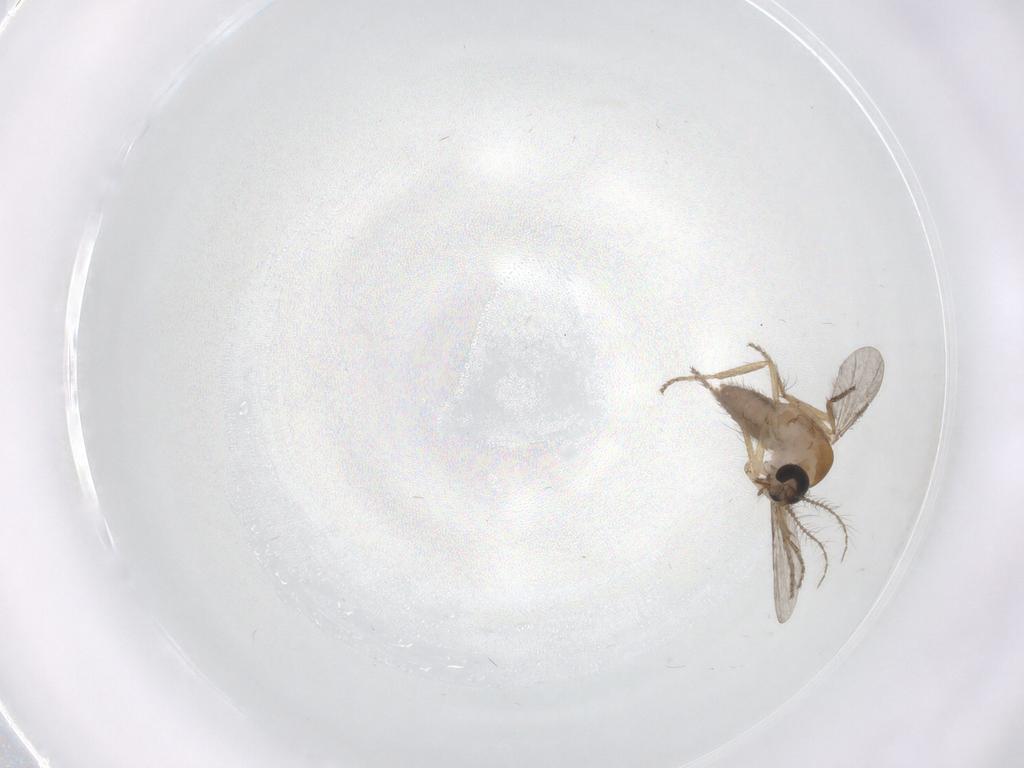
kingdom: Animalia
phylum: Arthropoda
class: Insecta
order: Diptera
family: Ceratopogonidae
